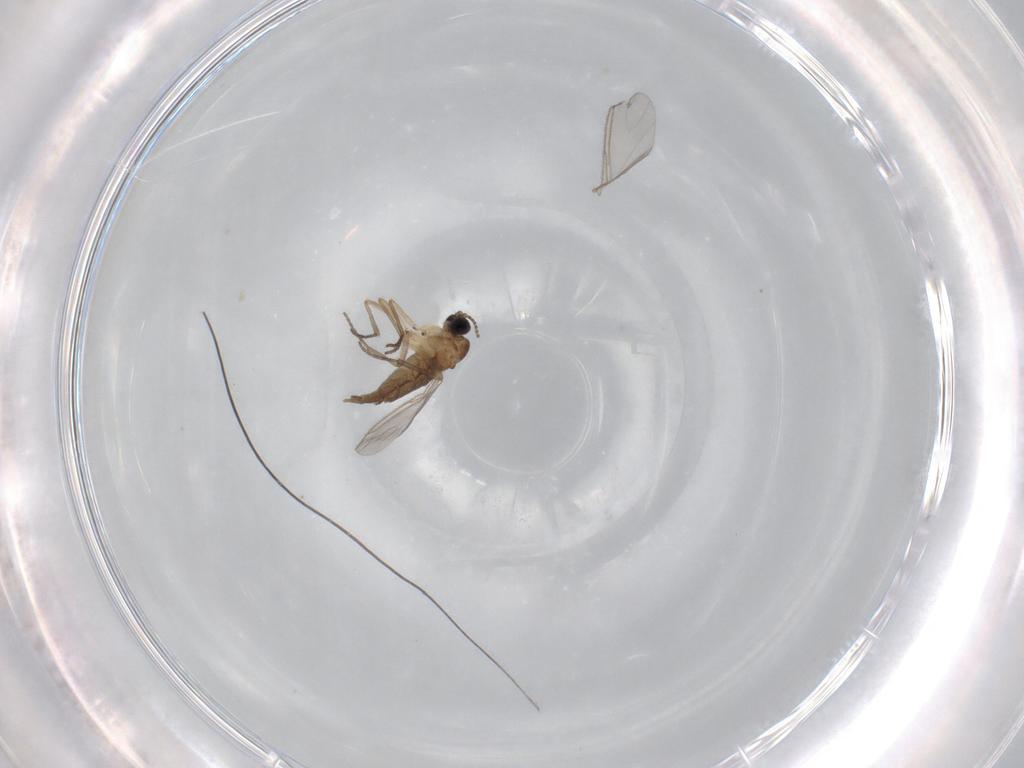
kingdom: Animalia
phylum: Arthropoda
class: Insecta
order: Diptera
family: Sciaridae
